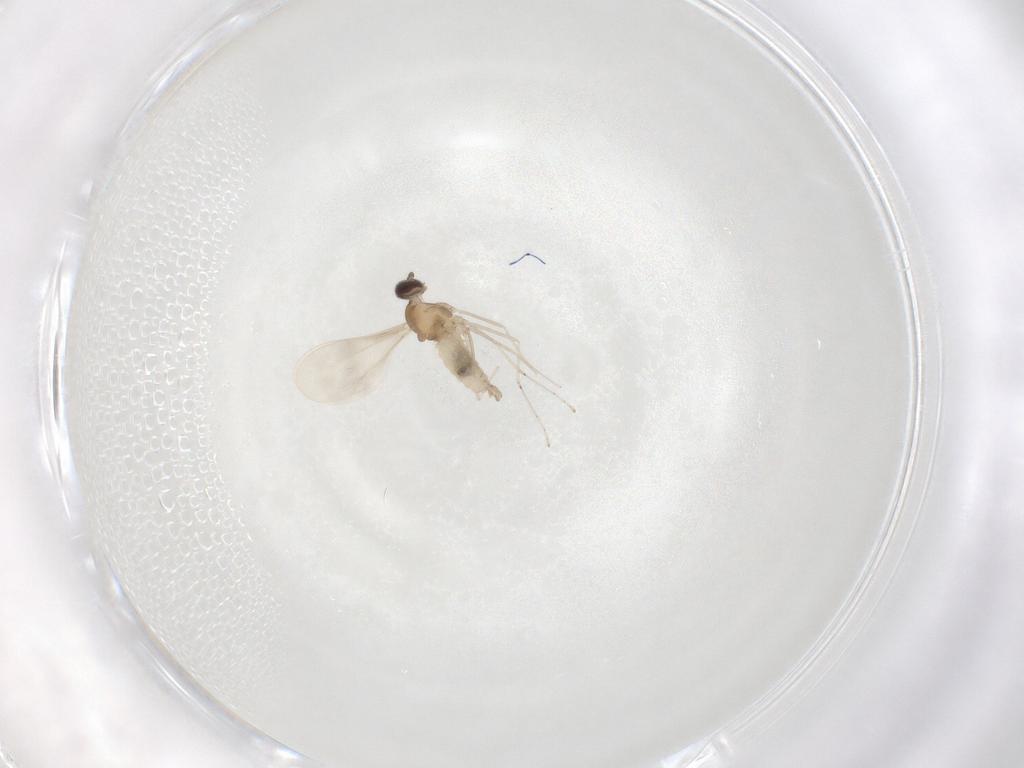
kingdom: Animalia
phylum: Arthropoda
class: Insecta
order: Diptera
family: Cecidomyiidae
